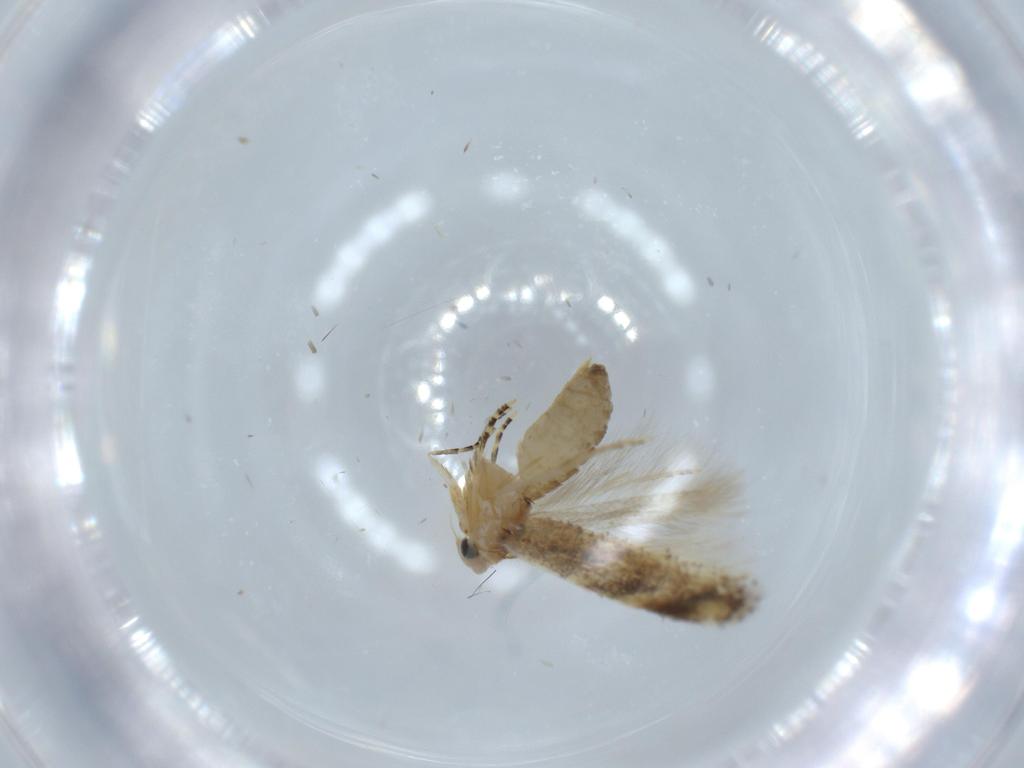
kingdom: Animalia
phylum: Arthropoda
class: Insecta
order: Lepidoptera
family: Bucculatricidae
